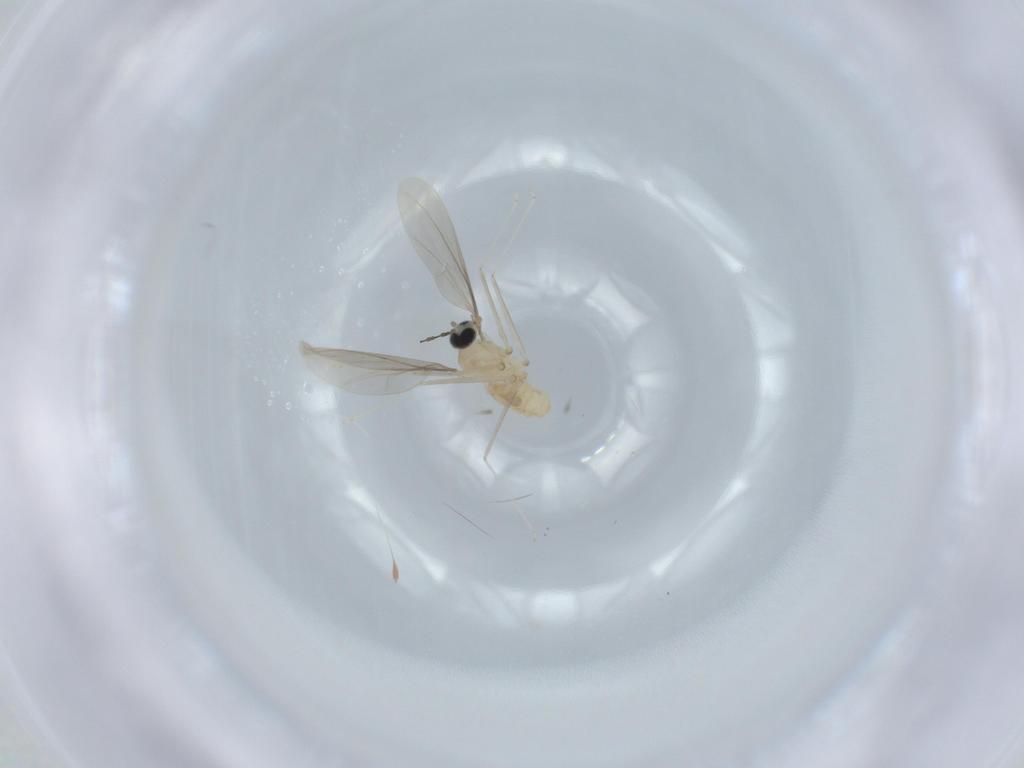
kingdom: Animalia
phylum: Arthropoda
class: Insecta
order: Diptera
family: Cecidomyiidae
